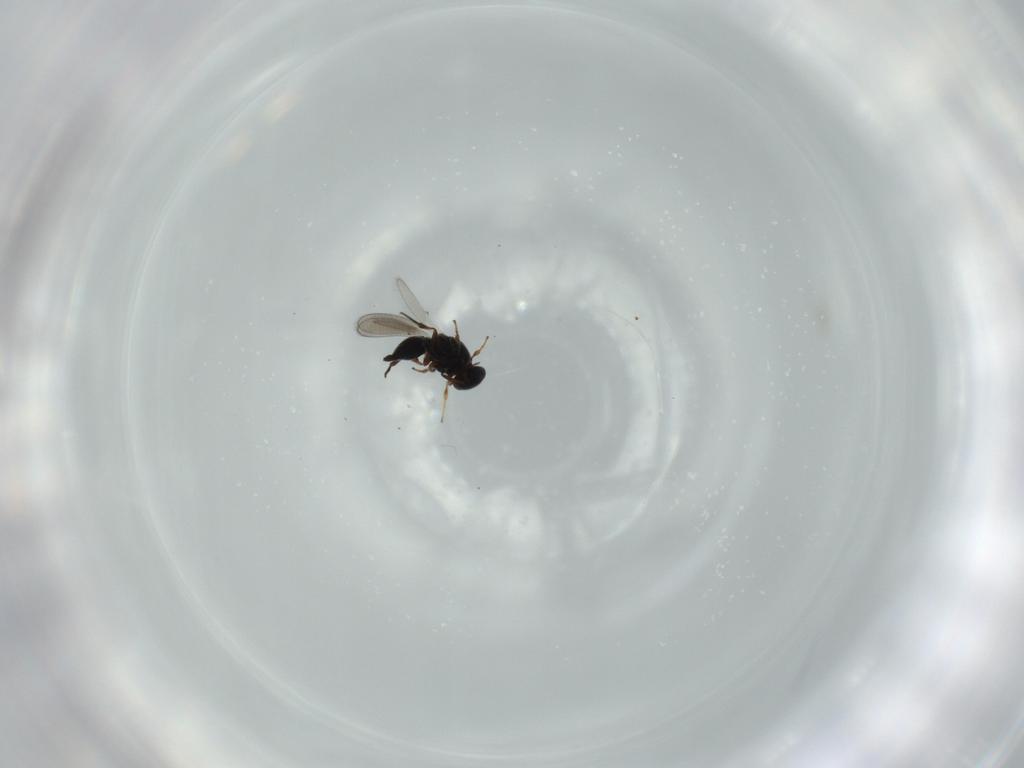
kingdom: Animalia
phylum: Arthropoda
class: Insecta
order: Hymenoptera
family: Platygastridae
